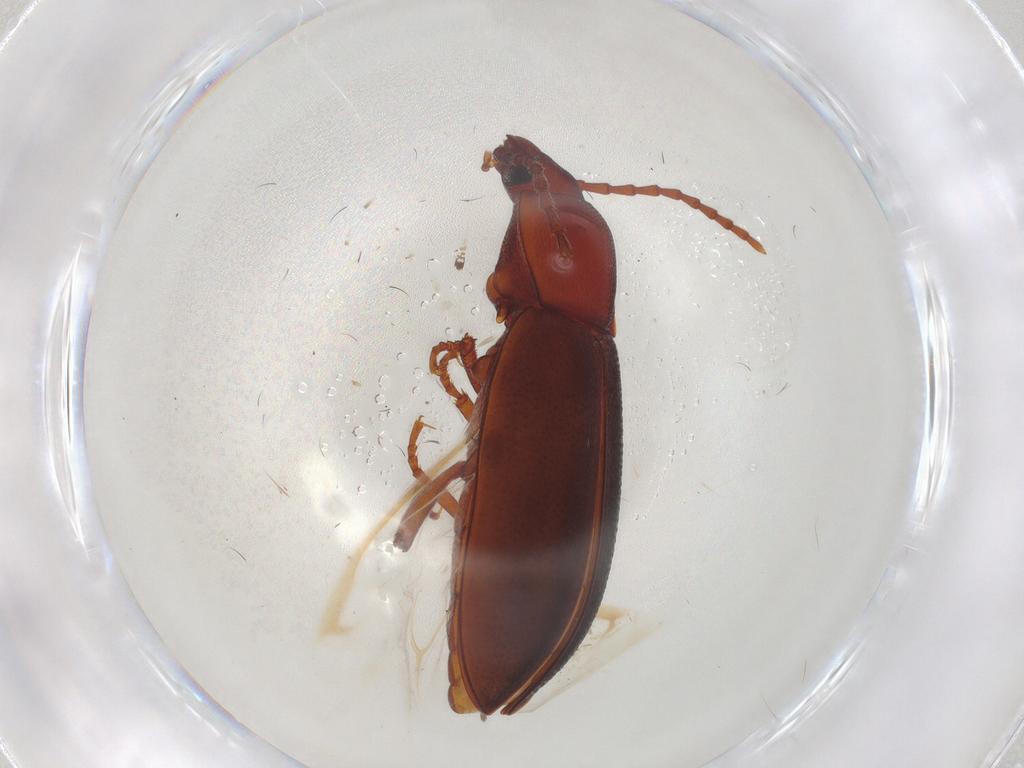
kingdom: Animalia
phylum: Arthropoda
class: Insecta
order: Coleoptera
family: Tenebrionidae
